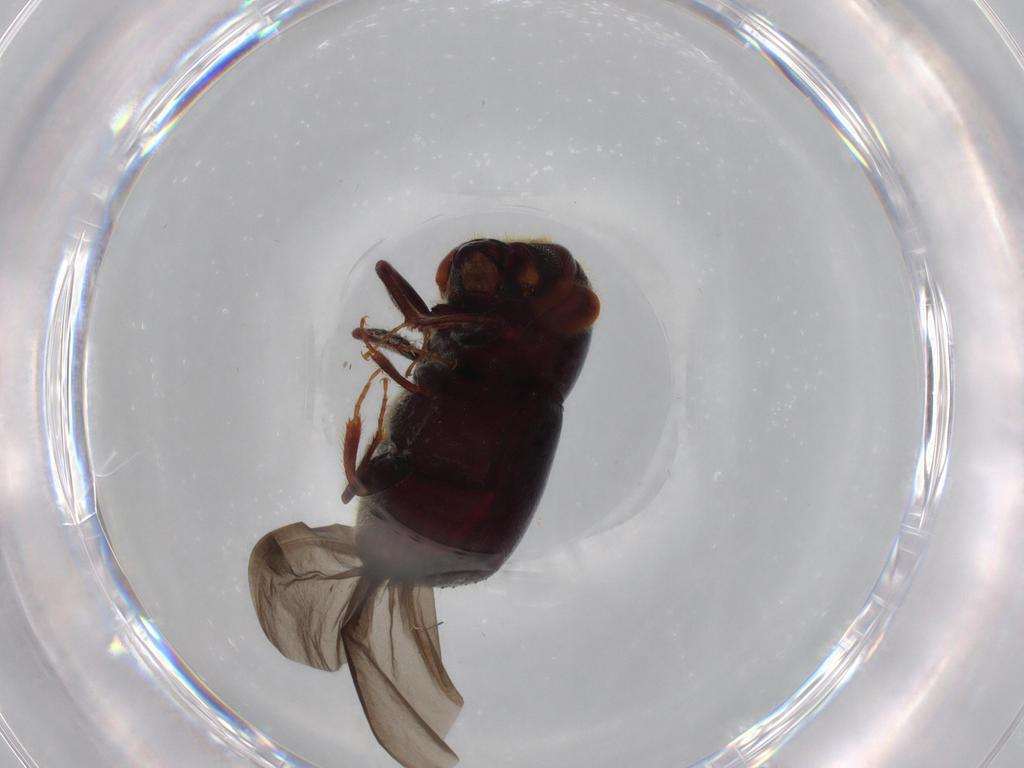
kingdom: Animalia
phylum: Arthropoda
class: Insecta
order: Coleoptera
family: Curculionidae
